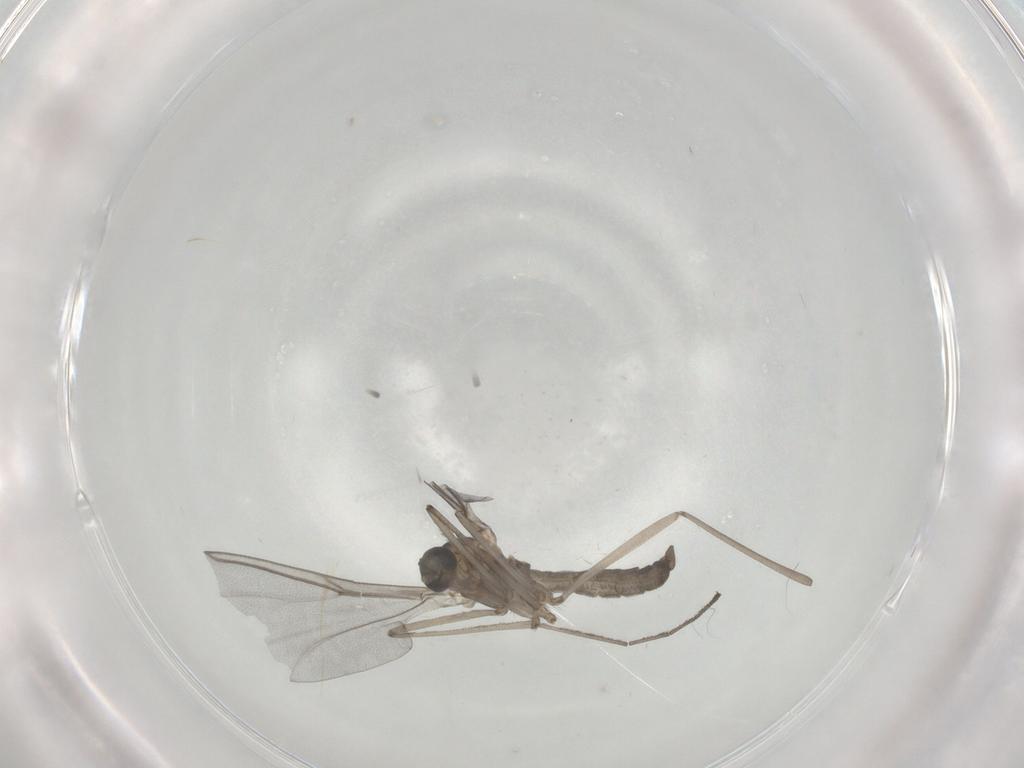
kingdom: Animalia
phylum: Arthropoda
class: Insecta
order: Diptera
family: Sciaridae
